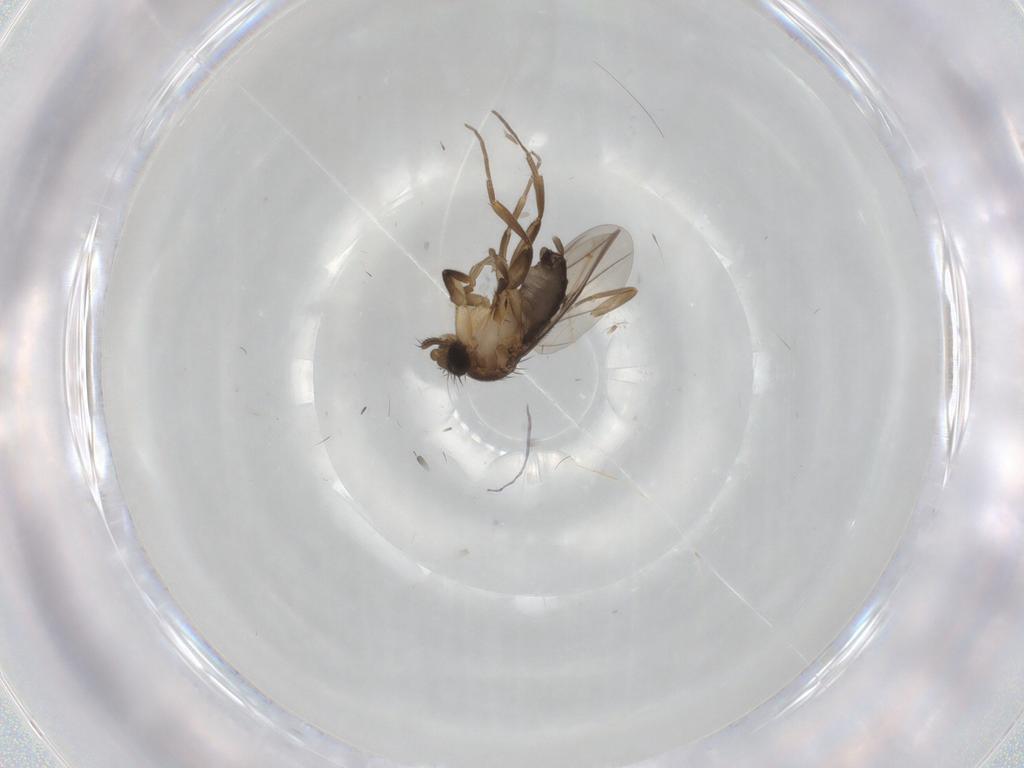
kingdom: Animalia
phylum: Arthropoda
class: Insecta
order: Diptera
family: Phoridae
